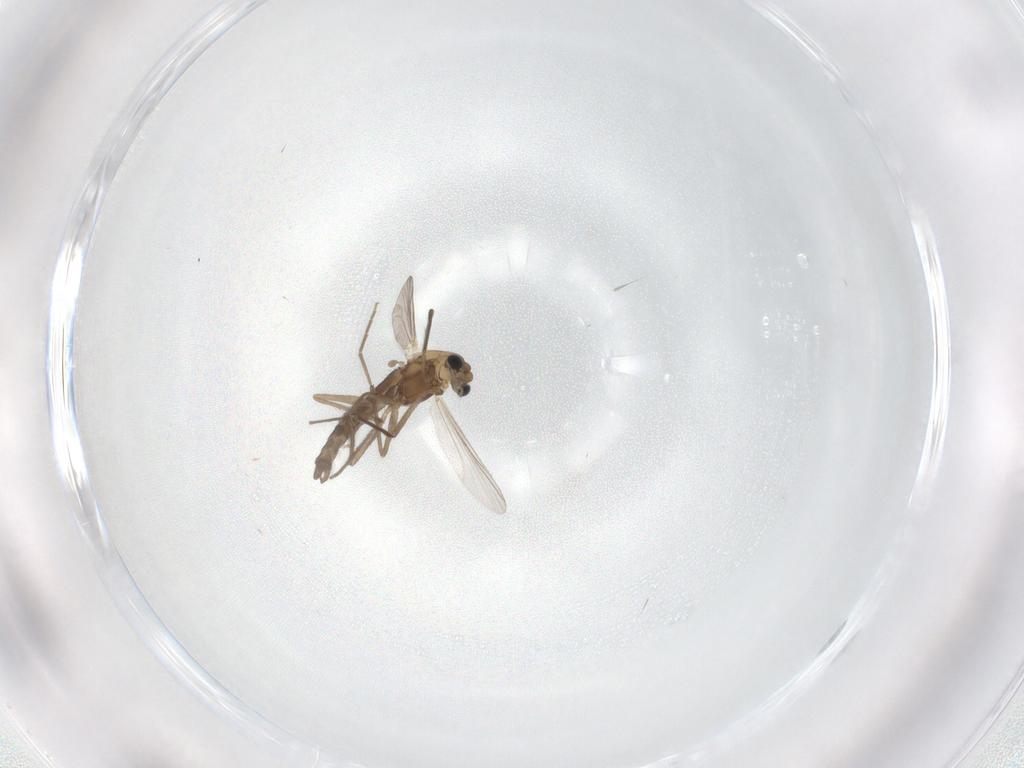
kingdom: Animalia
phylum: Arthropoda
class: Insecta
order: Diptera
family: Chironomidae
